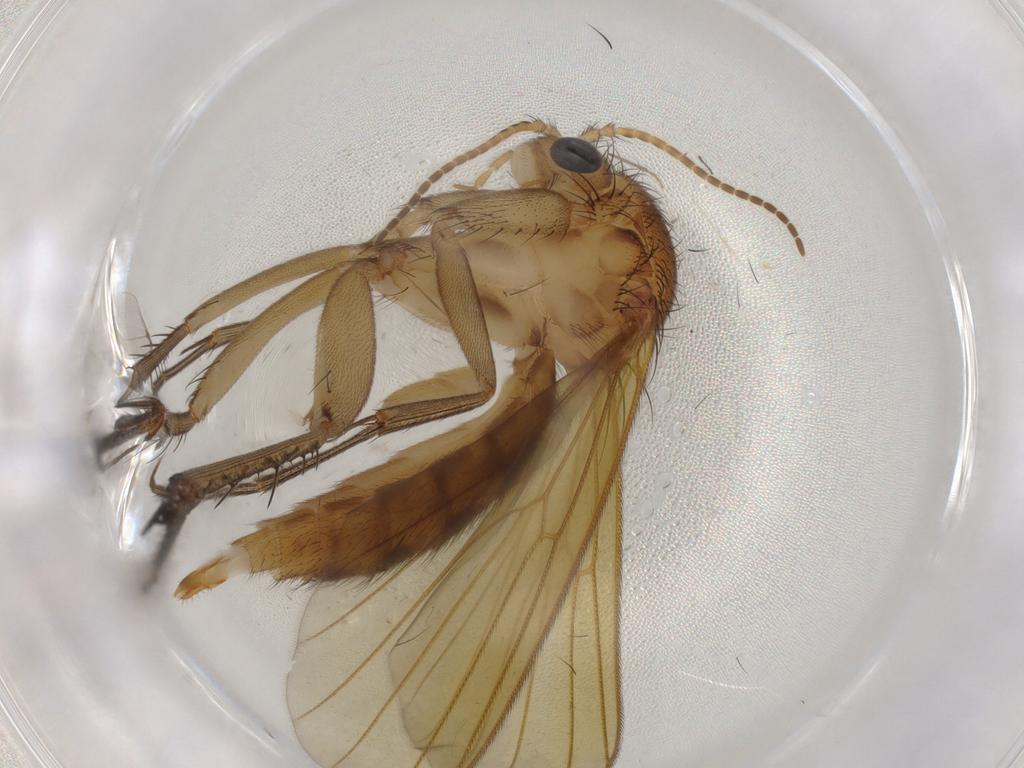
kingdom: Animalia
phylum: Arthropoda
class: Insecta
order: Diptera
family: Mycetophilidae
